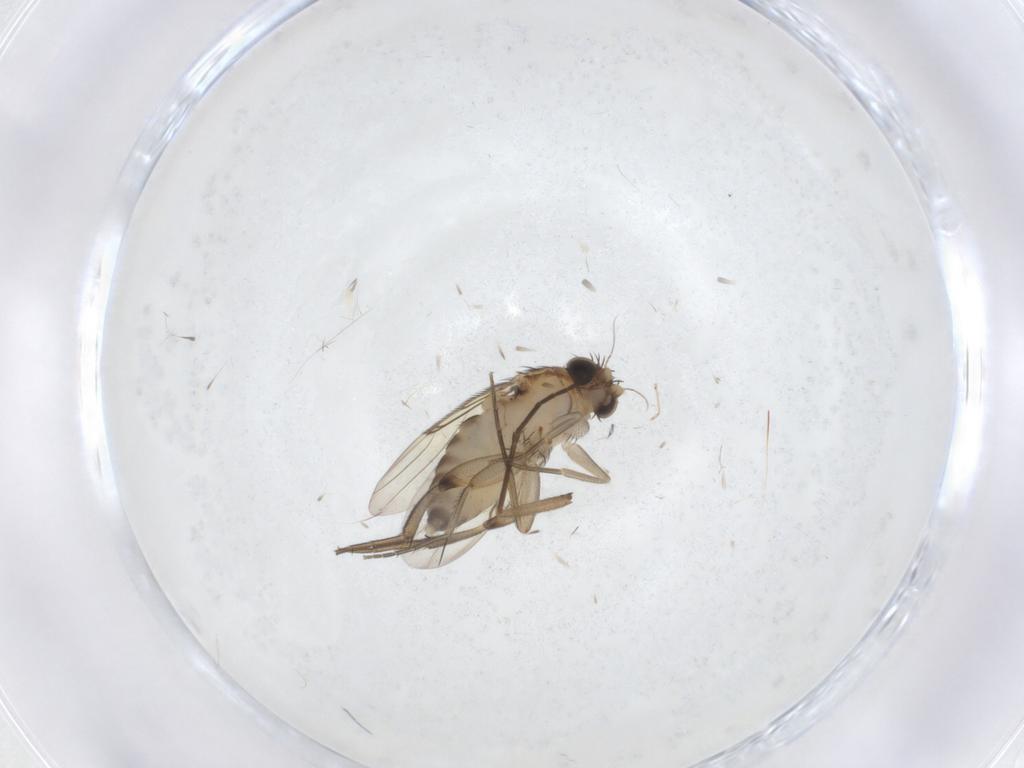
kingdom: Animalia
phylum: Arthropoda
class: Insecta
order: Diptera
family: Phoridae
